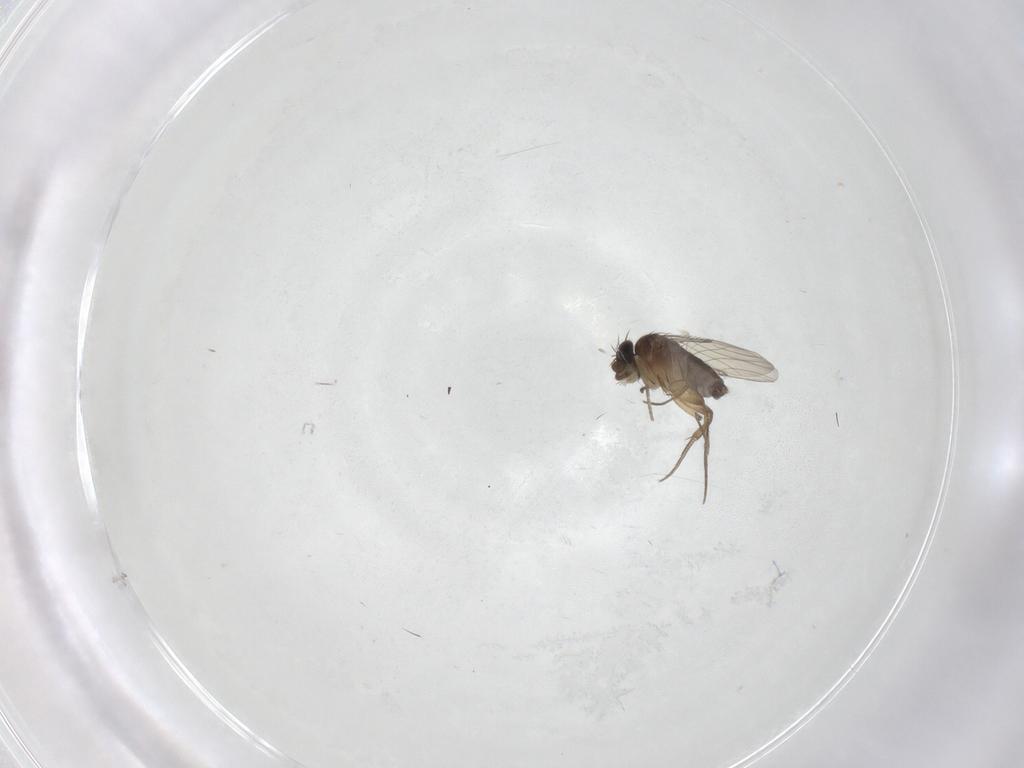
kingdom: Animalia
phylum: Arthropoda
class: Insecta
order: Diptera
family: Phoridae
